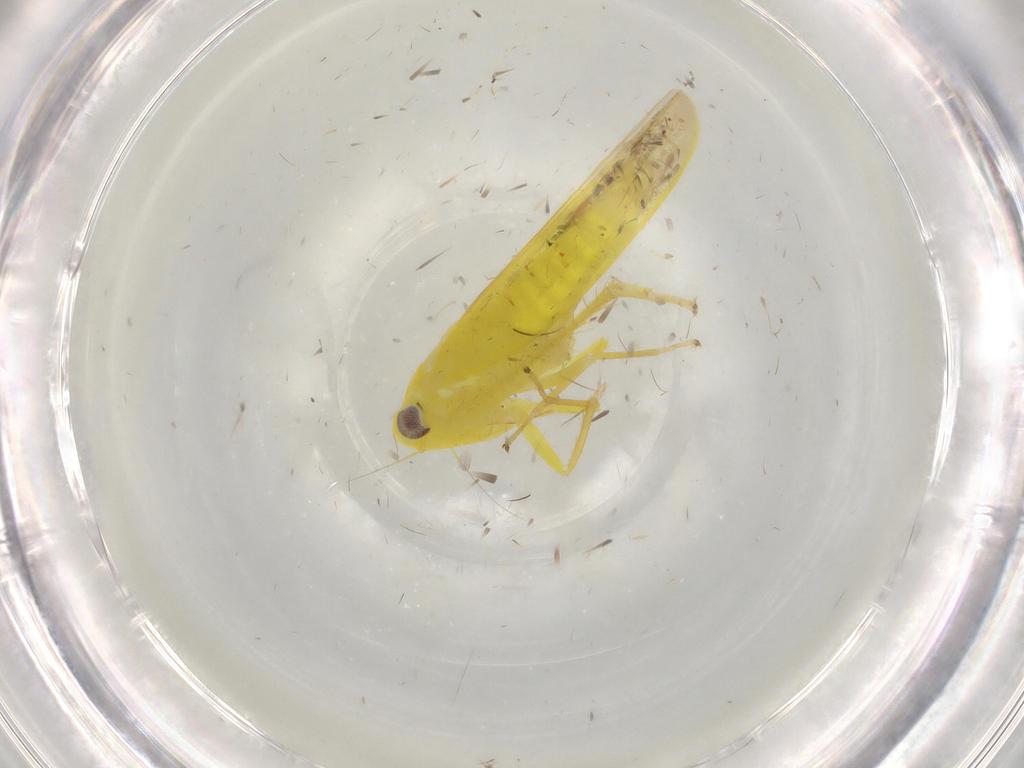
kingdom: Animalia
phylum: Arthropoda
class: Insecta
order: Hemiptera
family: Cicadellidae
